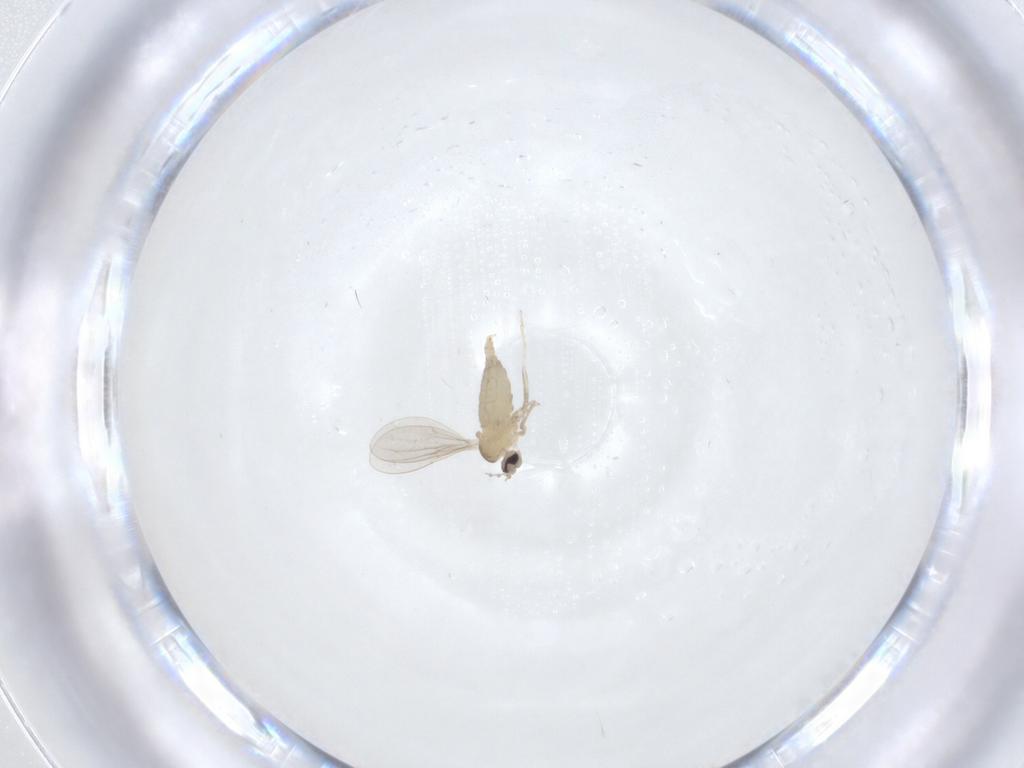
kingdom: Animalia
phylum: Arthropoda
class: Insecta
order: Diptera
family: Cecidomyiidae
